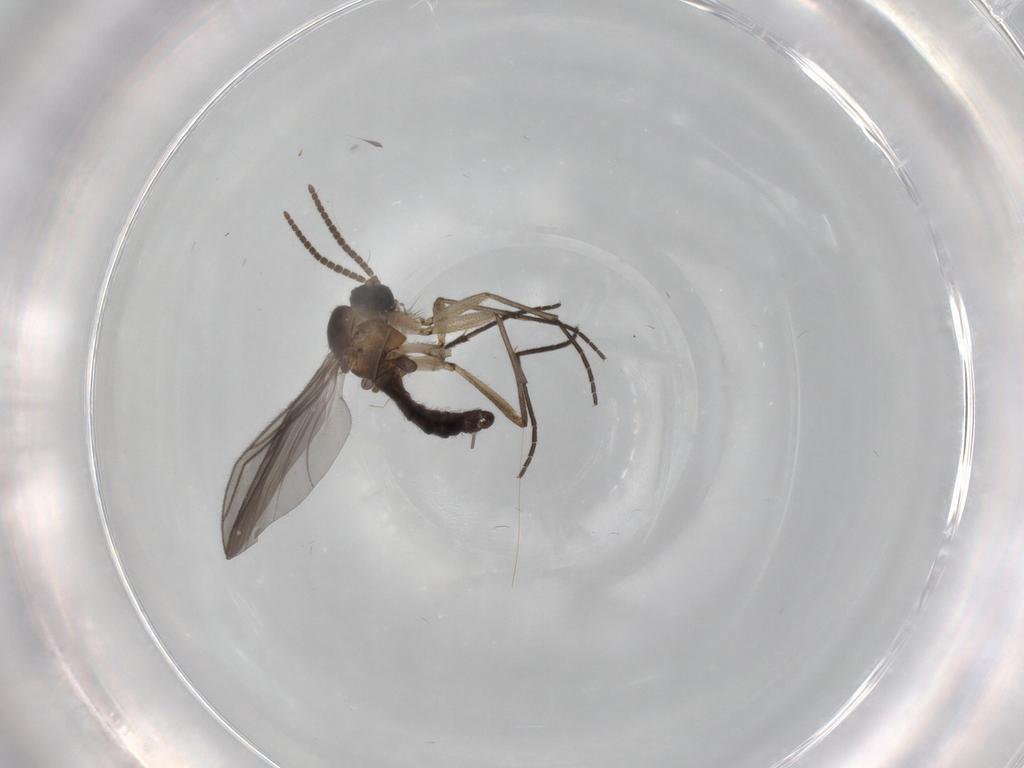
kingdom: Animalia
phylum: Arthropoda
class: Insecta
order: Diptera
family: Sciaridae
